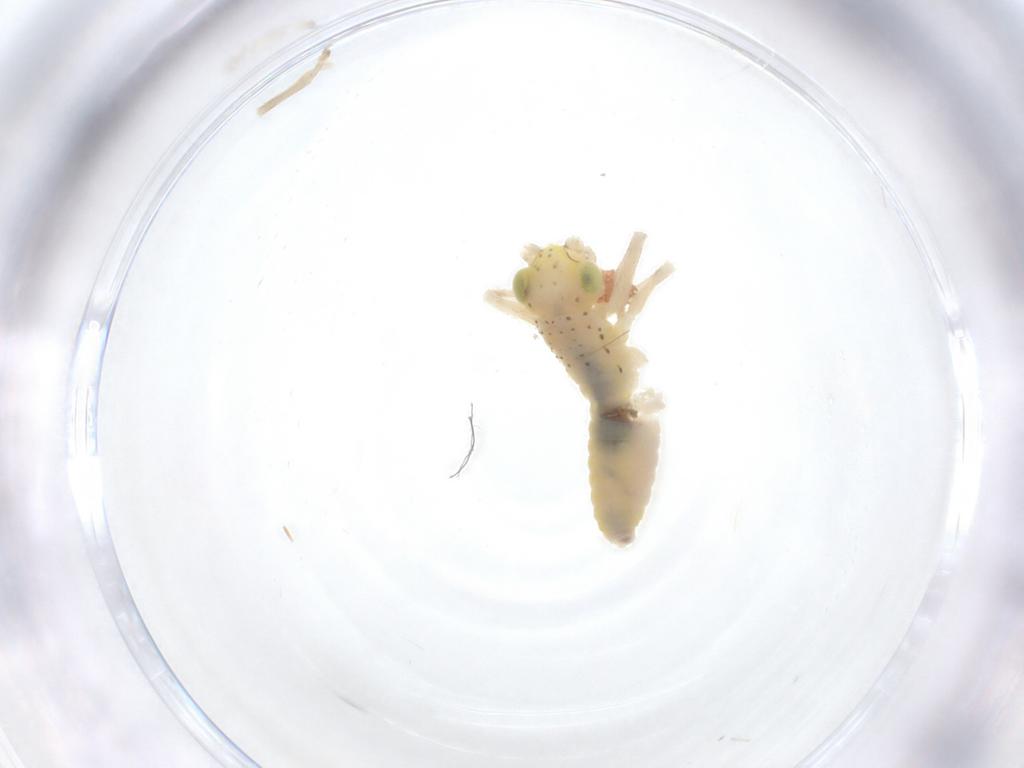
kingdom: Animalia
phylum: Arthropoda
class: Insecta
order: Orthoptera
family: Trigonidiidae
